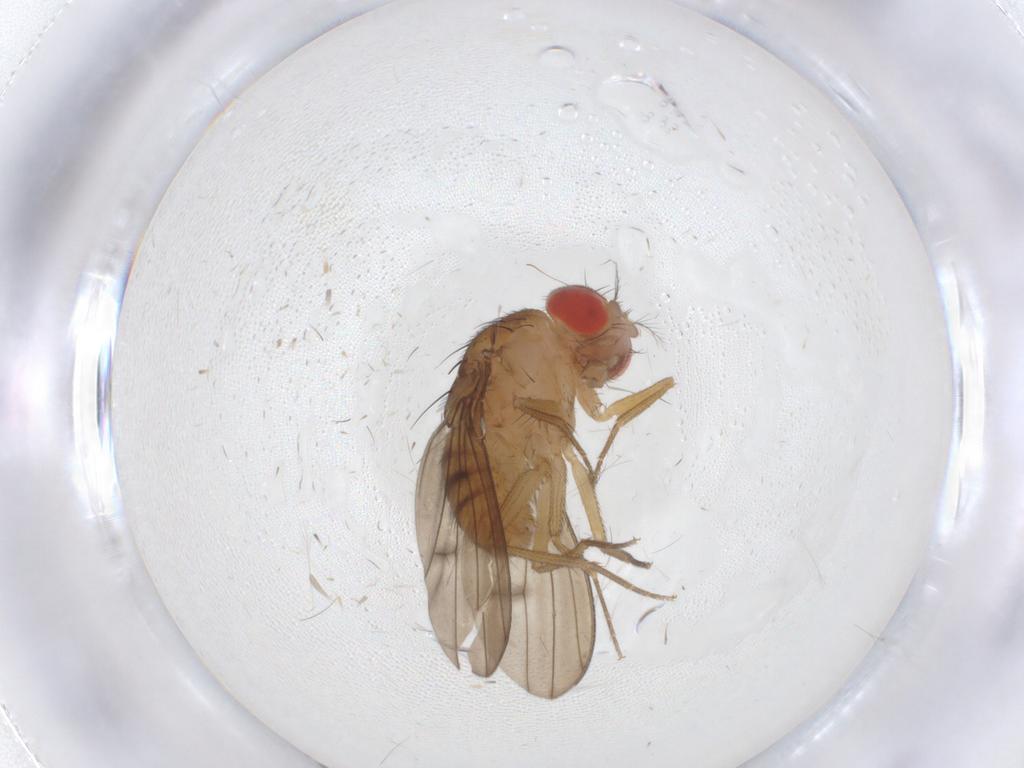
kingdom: Animalia
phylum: Arthropoda
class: Insecta
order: Diptera
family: Drosophilidae
